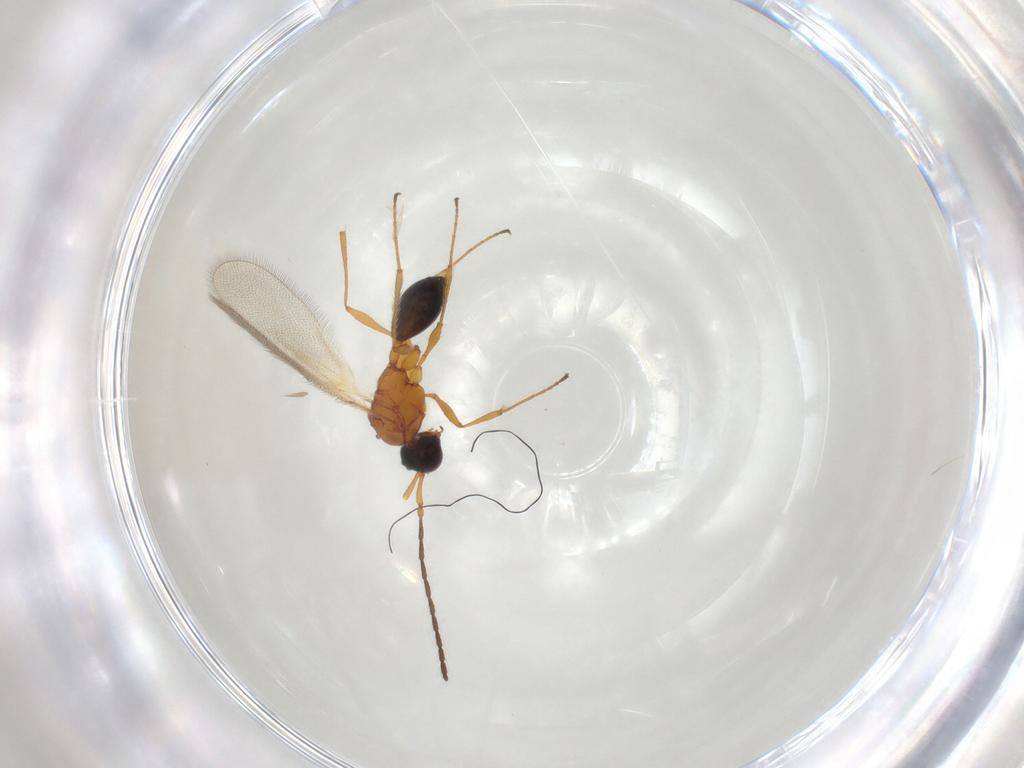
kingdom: Animalia
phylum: Arthropoda
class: Insecta
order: Hymenoptera
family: Diapriidae
